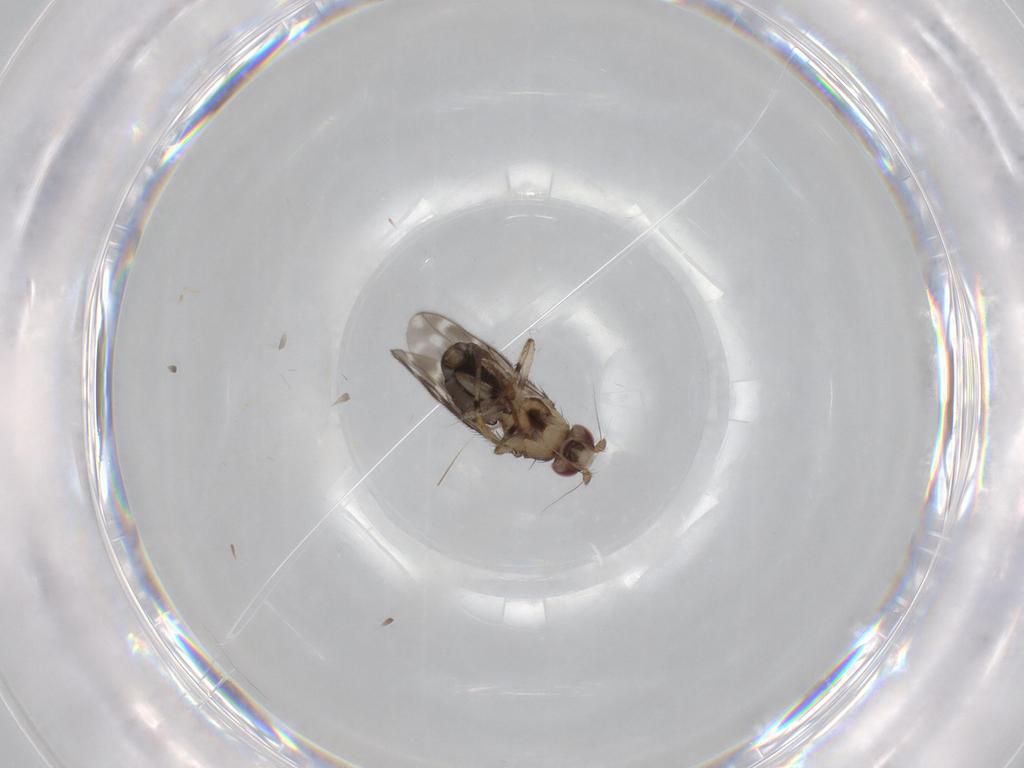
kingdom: Animalia
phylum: Arthropoda
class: Insecta
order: Diptera
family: Sphaeroceridae
